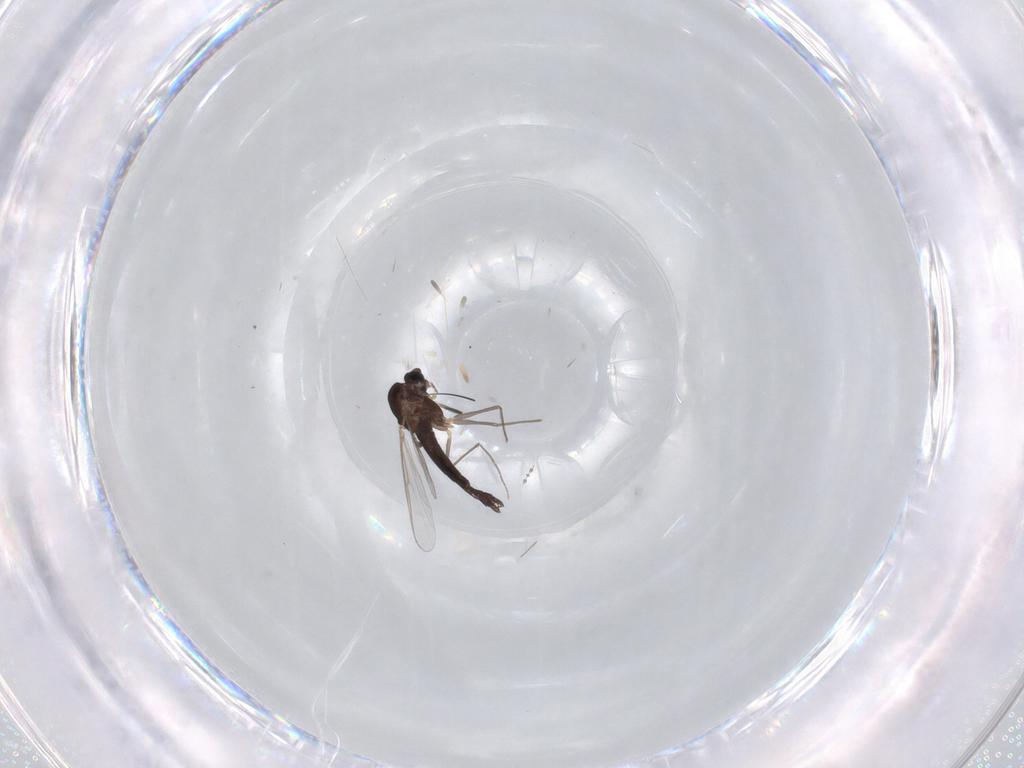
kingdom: Animalia
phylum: Arthropoda
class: Insecta
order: Diptera
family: Chironomidae
